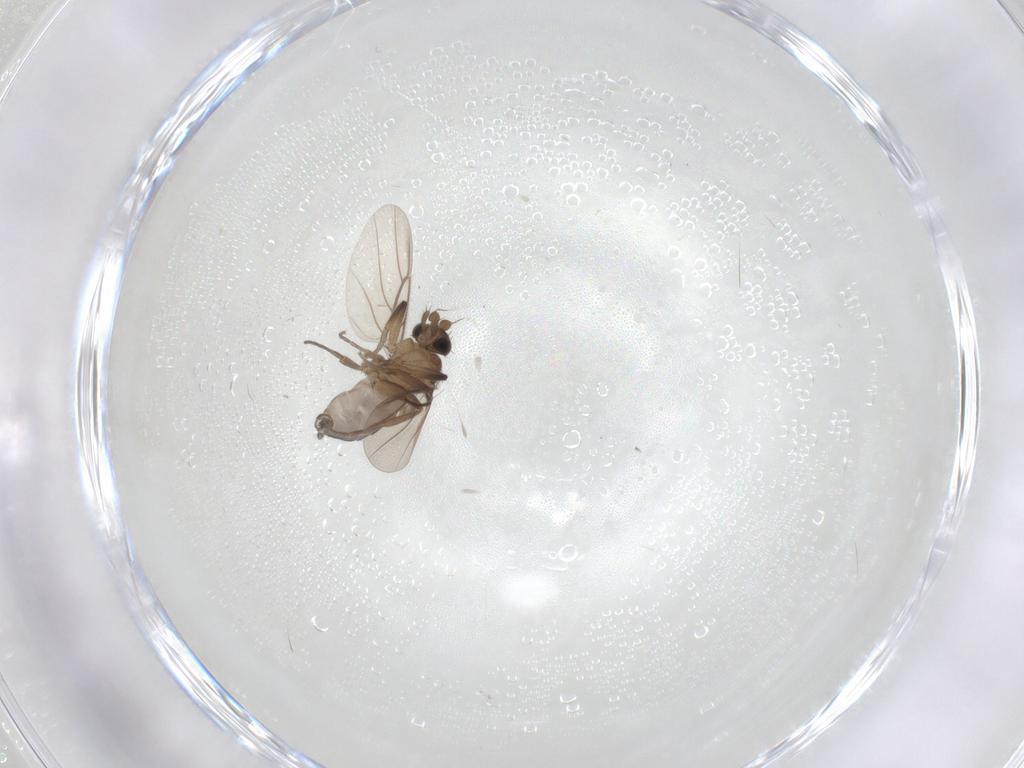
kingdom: Animalia
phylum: Arthropoda
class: Insecta
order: Diptera
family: Phoridae
